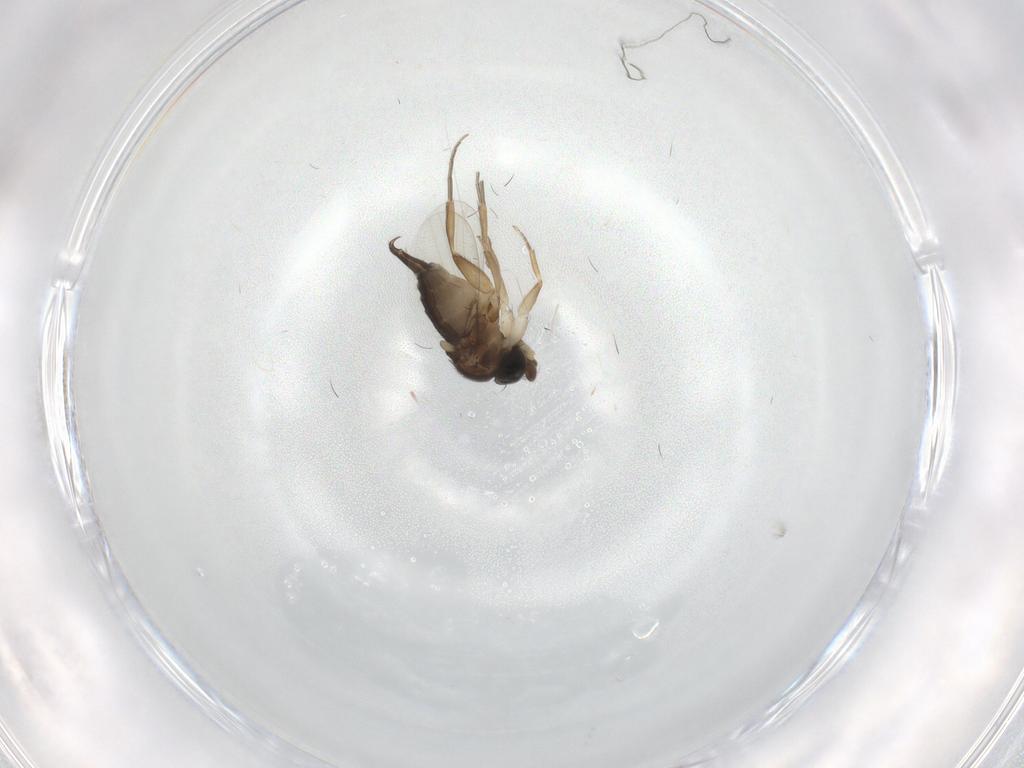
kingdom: Animalia
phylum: Arthropoda
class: Insecta
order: Diptera
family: Phoridae
